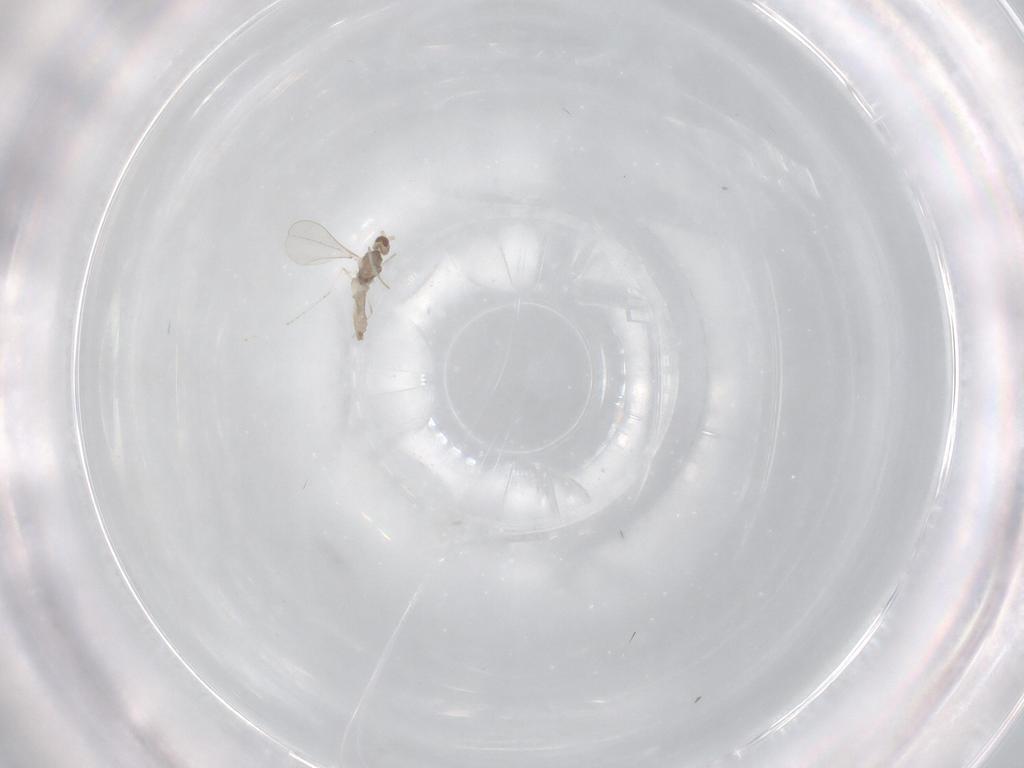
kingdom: Animalia
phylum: Arthropoda
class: Insecta
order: Diptera
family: Cecidomyiidae
